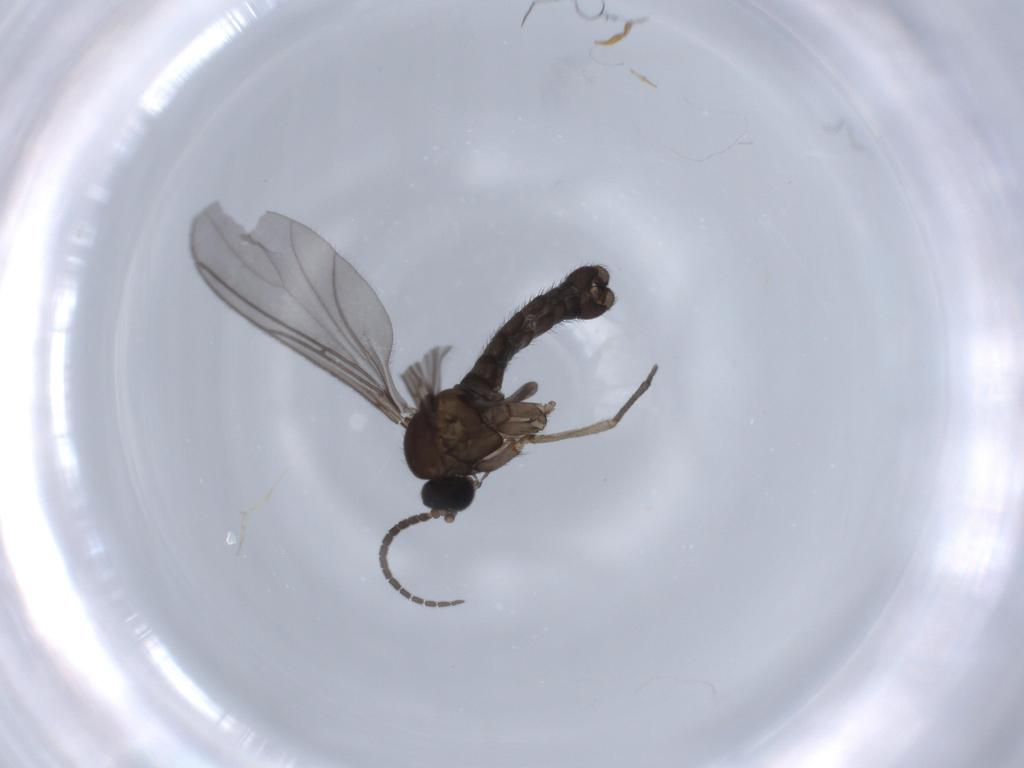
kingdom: Animalia
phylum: Arthropoda
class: Insecta
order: Diptera
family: Sciaridae
